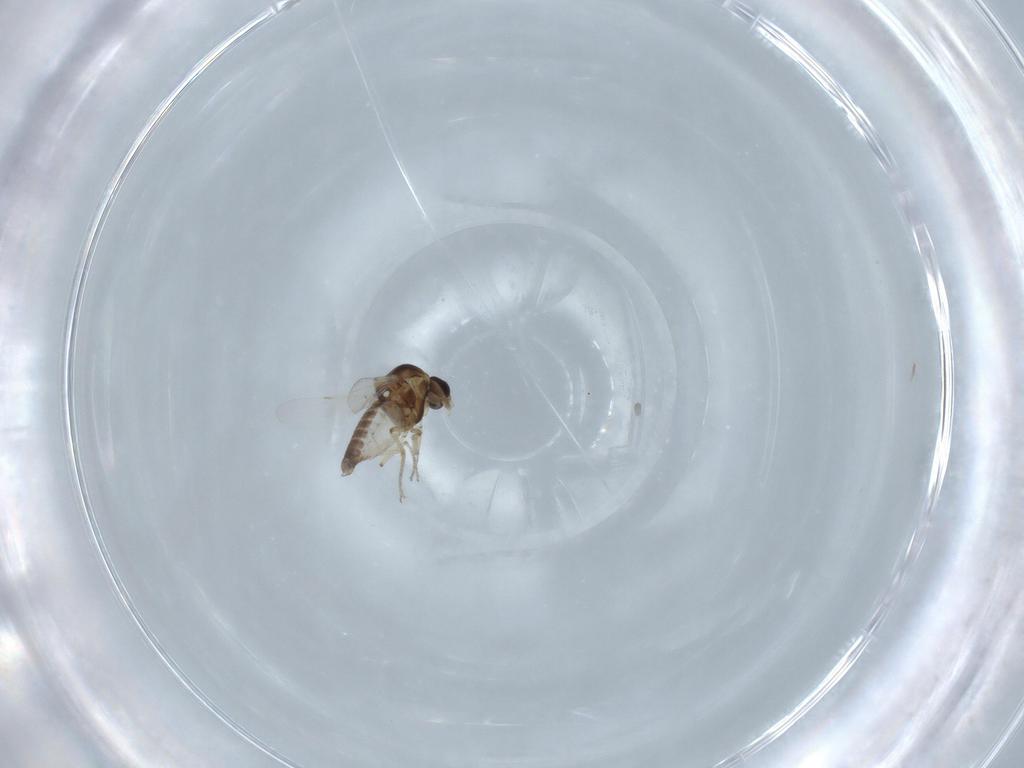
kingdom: Animalia
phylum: Arthropoda
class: Insecta
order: Diptera
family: Ceratopogonidae
